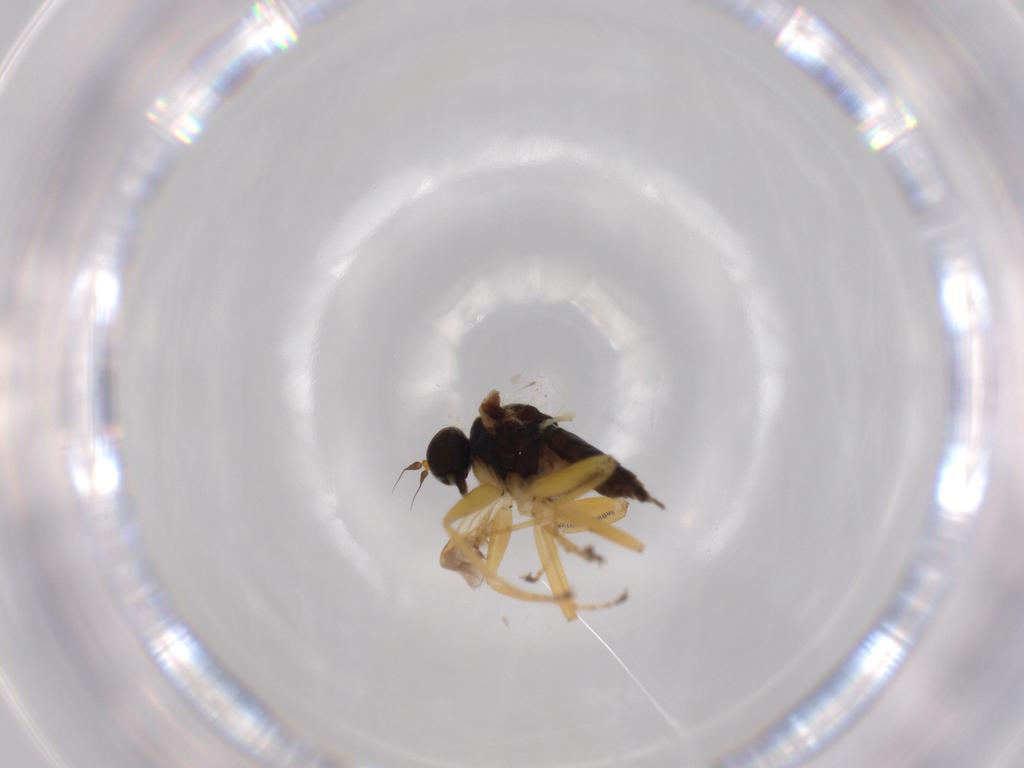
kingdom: Animalia
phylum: Arthropoda
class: Insecta
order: Diptera
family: Hybotidae
